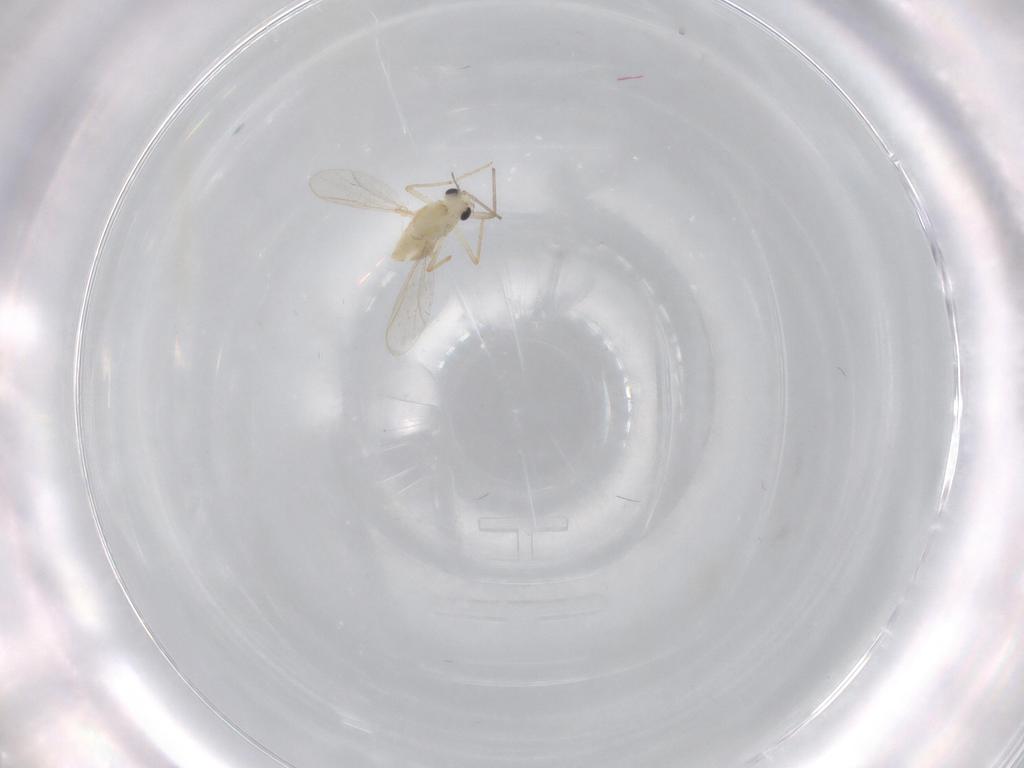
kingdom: Animalia
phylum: Arthropoda
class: Insecta
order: Diptera
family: Chironomidae
